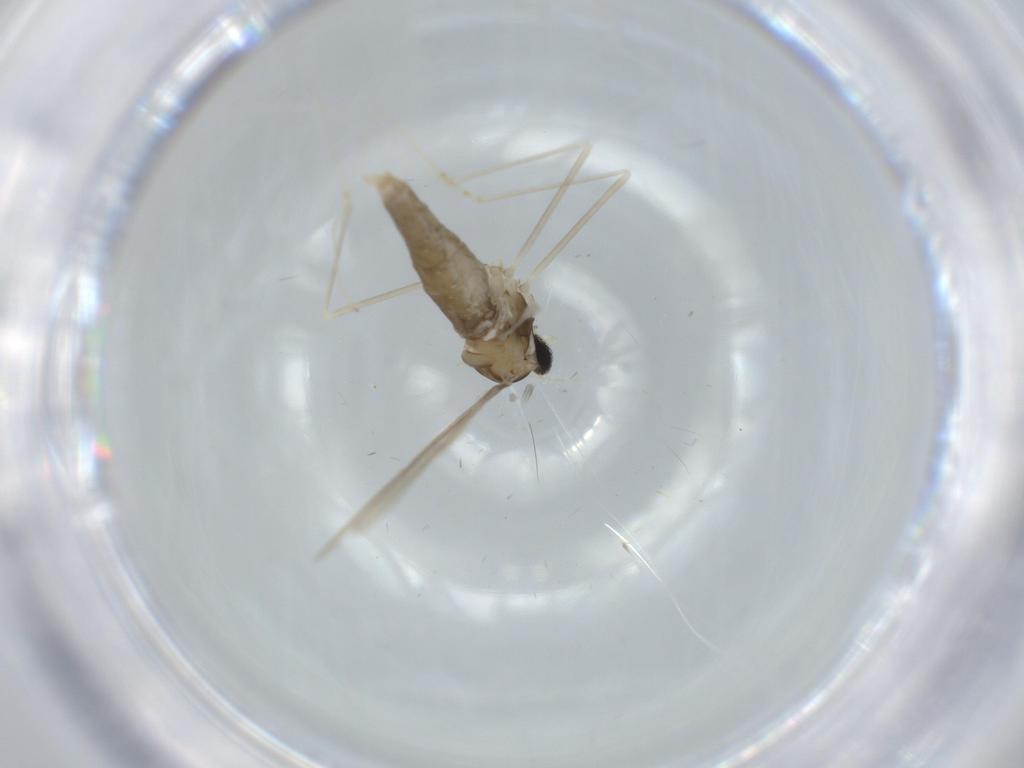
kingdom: Animalia
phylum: Arthropoda
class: Insecta
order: Diptera
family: Cecidomyiidae
